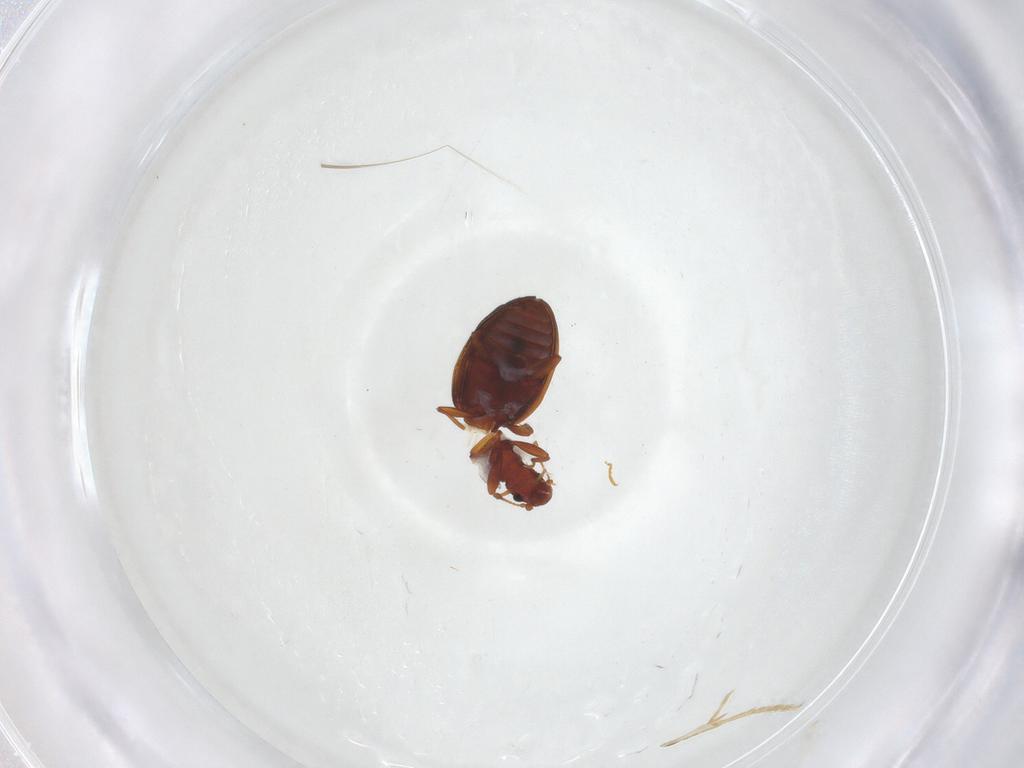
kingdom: Animalia
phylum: Arthropoda
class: Insecta
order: Coleoptera
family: Latridiidae
